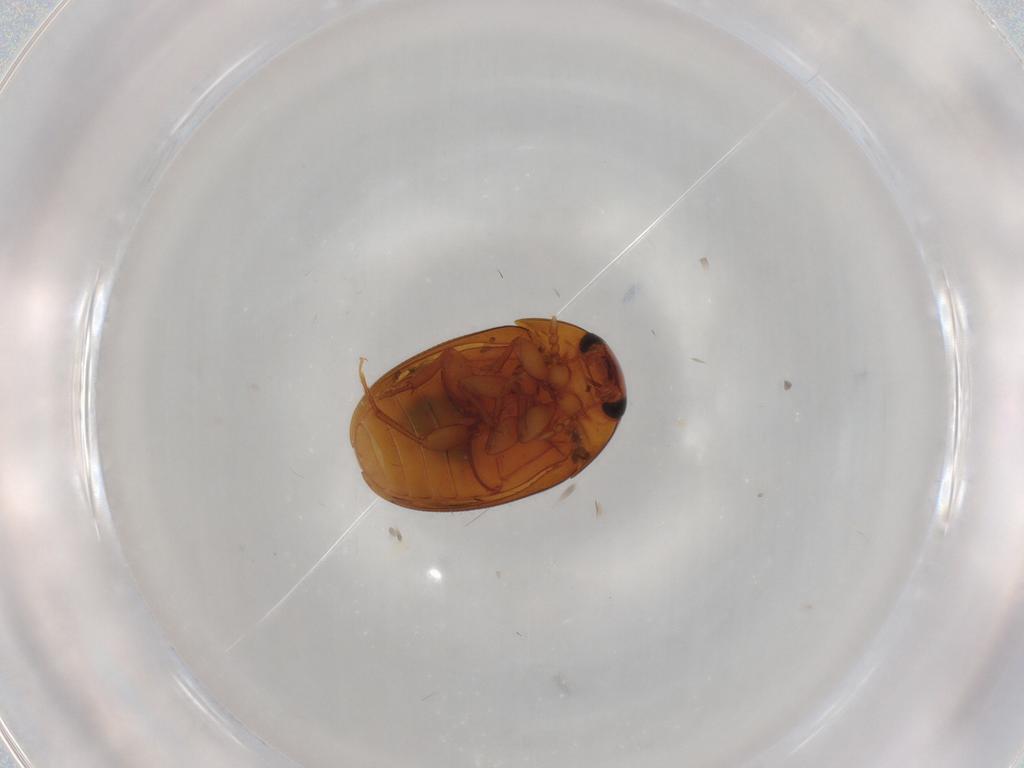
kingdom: Animalia
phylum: Arthropoda
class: Insecta
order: Coleoptera
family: Phalacridae
